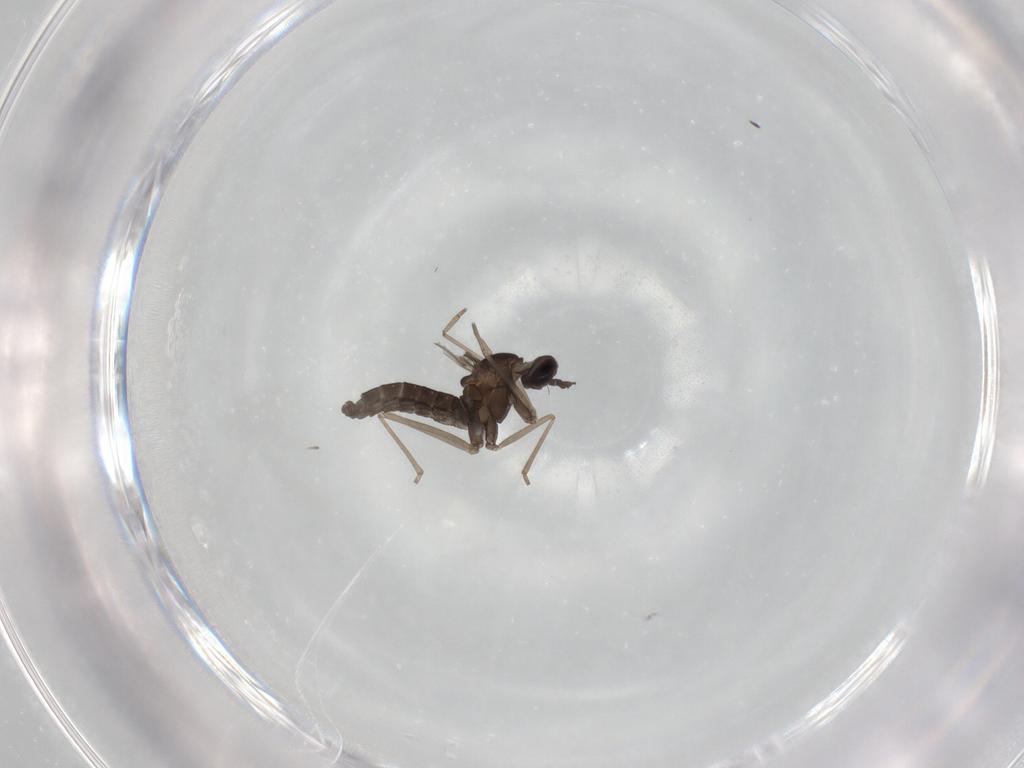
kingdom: Animalia
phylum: Arthropoda
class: Insecta
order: Diptera
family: Cecidomyiidae
